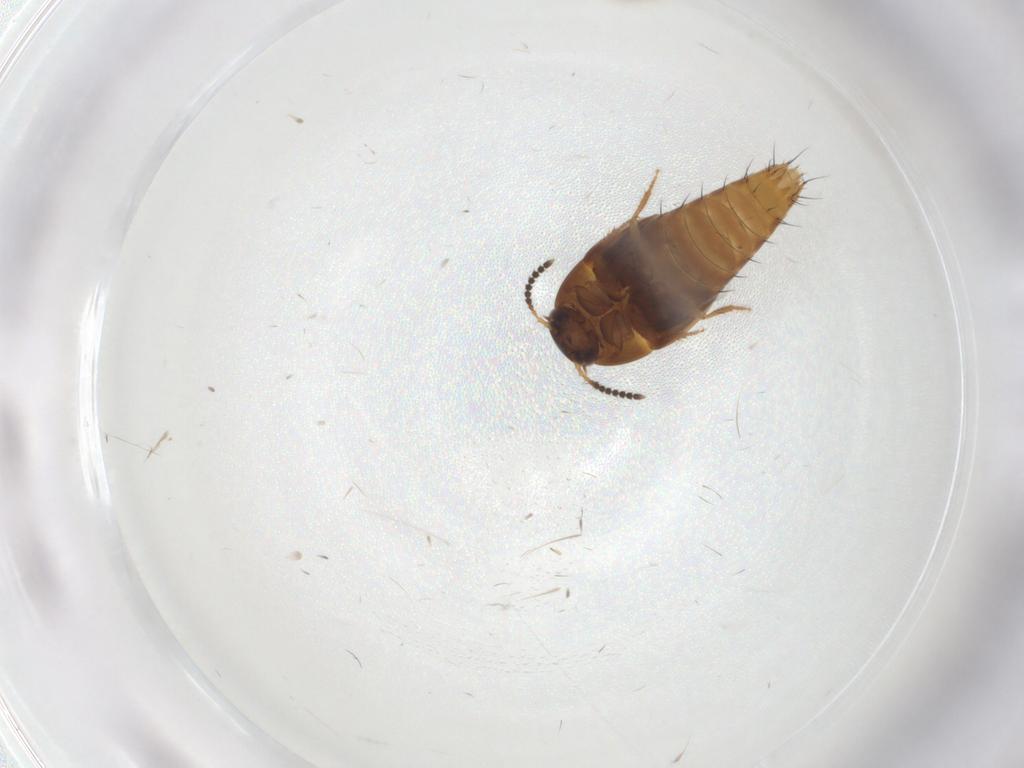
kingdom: Animalia
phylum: Arthropoda
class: Insecta
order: Coleoptera
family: Staphylinidae
